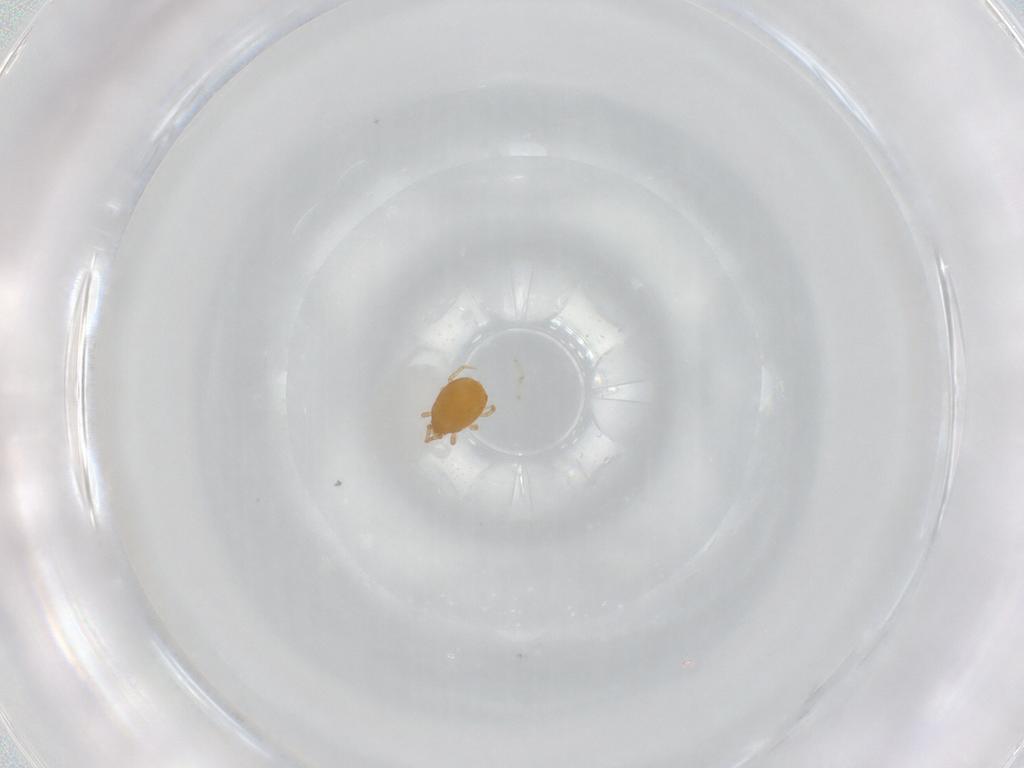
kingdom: Animalia
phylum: Arthropoda
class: Arachnida
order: Mesostigmata
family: Melicharidae
